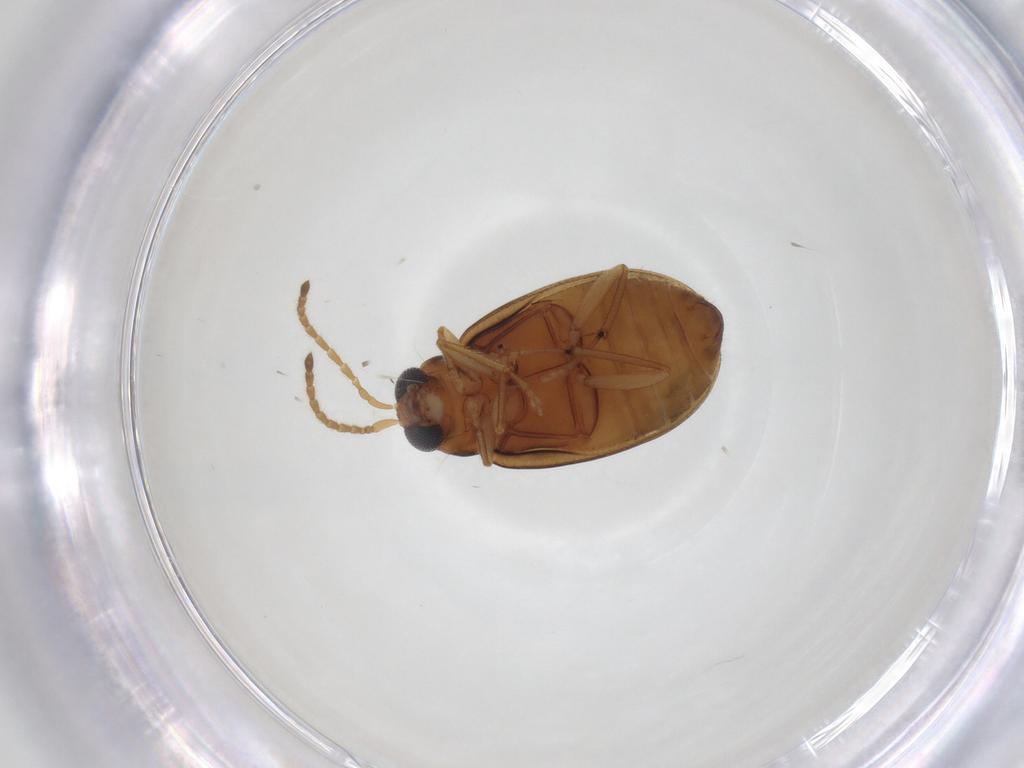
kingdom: Animalia
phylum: Arthropoda
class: Insecta
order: Coleoptera
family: Chrysomelidae
